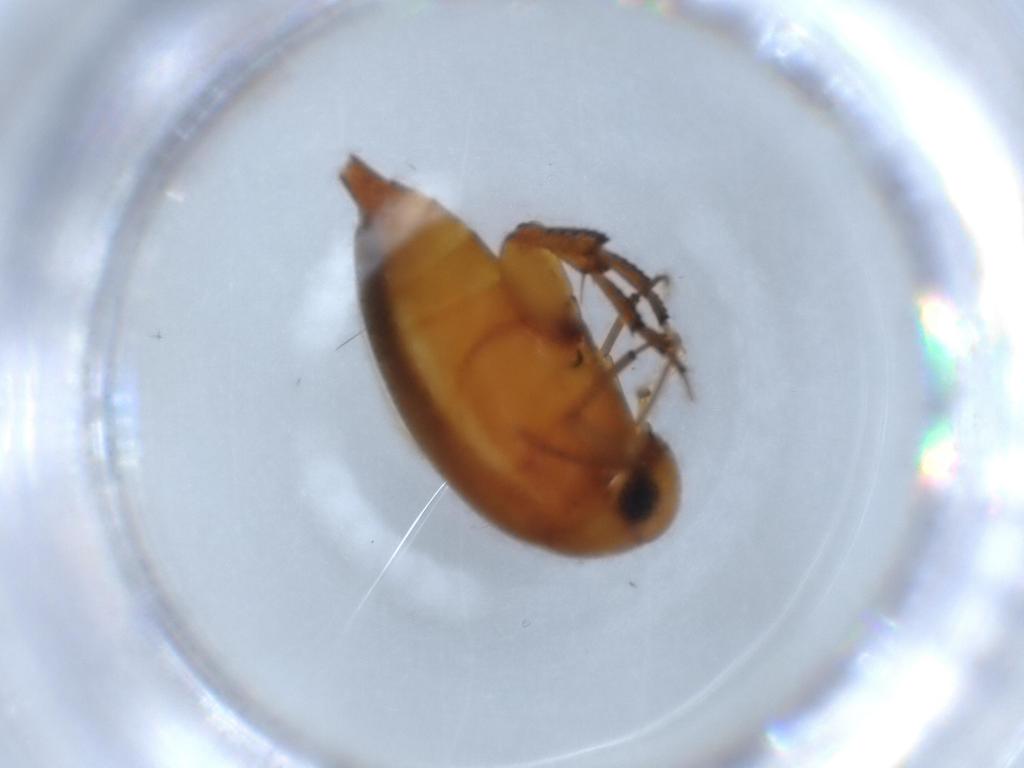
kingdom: Animalia
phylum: Arthropoda
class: Insecta
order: Coleoptera
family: Mordellidae
